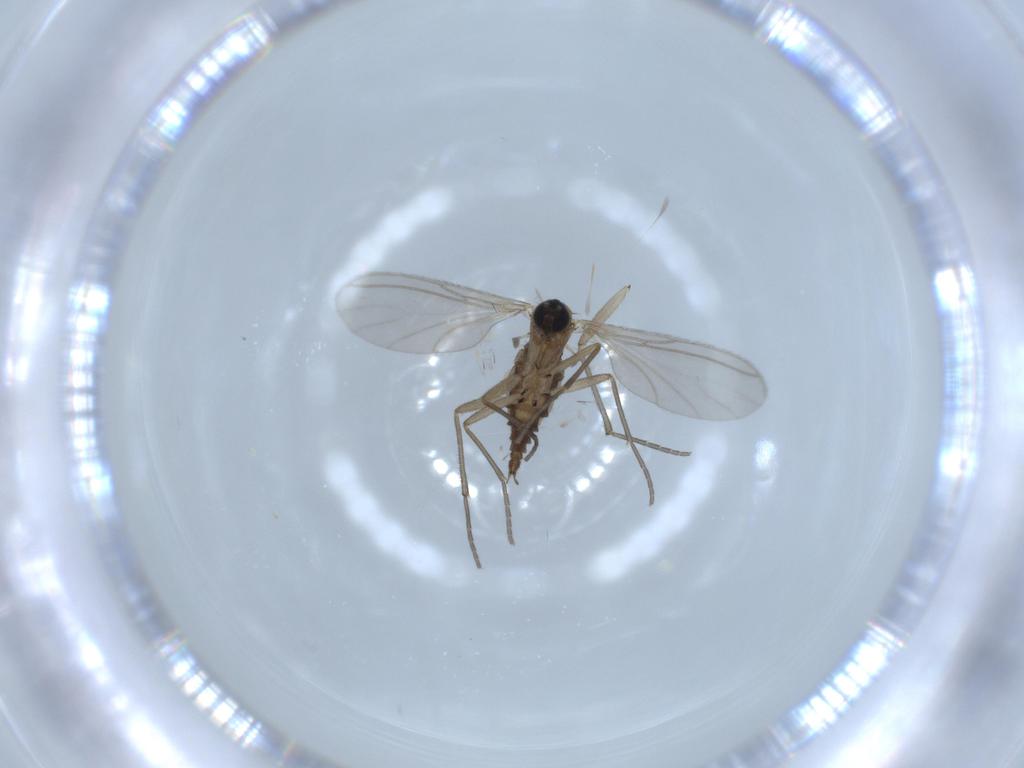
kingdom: Animalia
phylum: Arthropoda
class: Insecta
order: Diptera
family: Sciaridae
